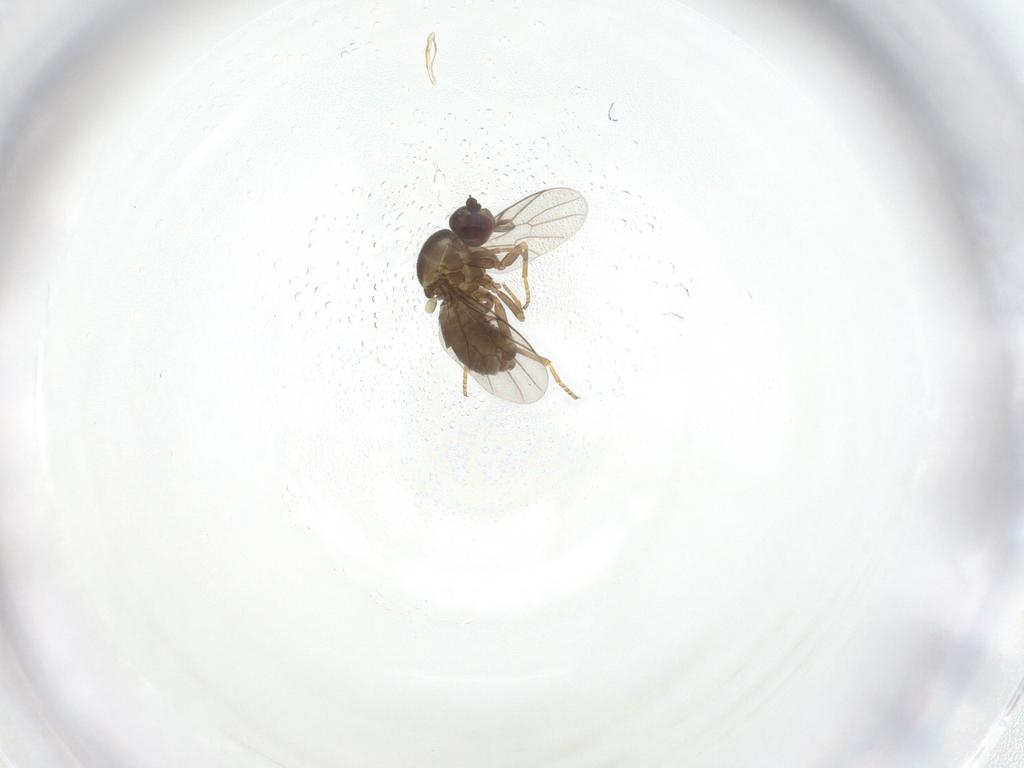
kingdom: Animalia
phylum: Arthropoda
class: Insecta
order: Diptera
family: Bombyliidae
